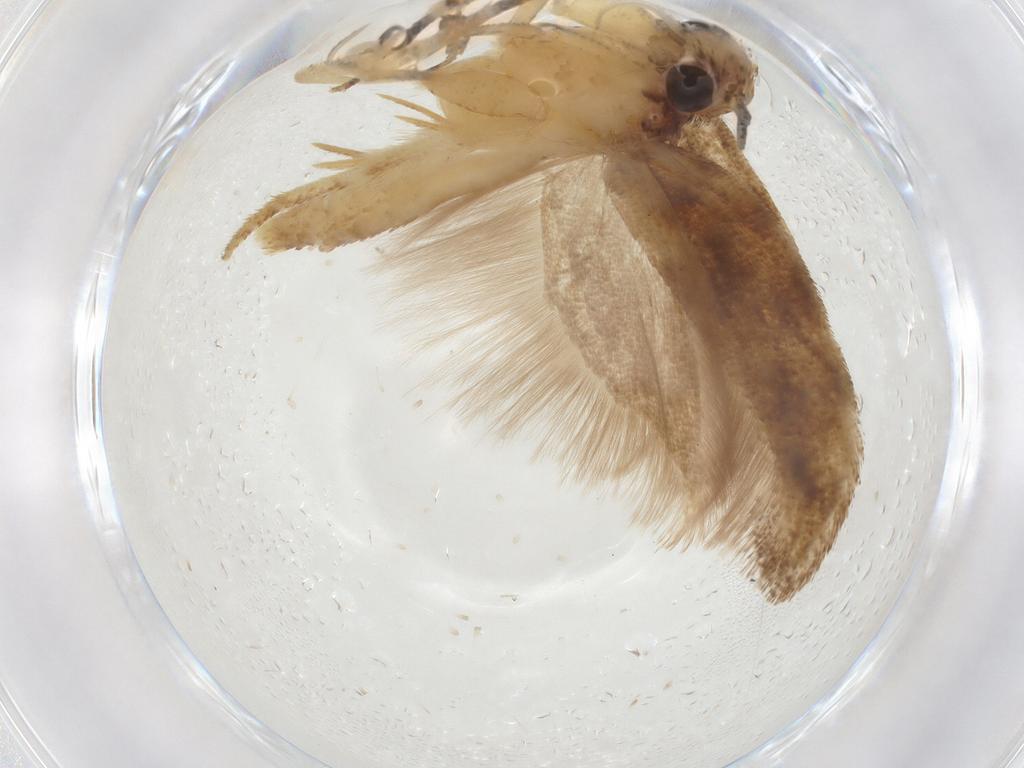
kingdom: Animalia
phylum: Arthropoda
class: Insecta
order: Lepidoptera
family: Gelechiidae
